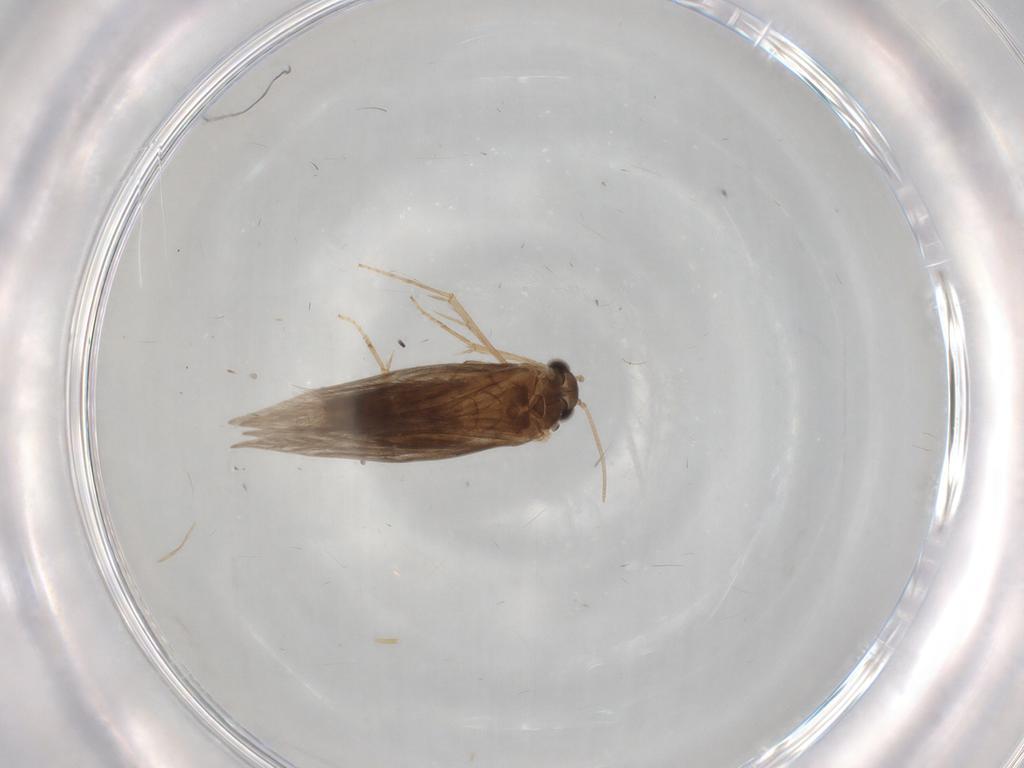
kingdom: Animalia
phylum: Arthropoda
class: Insecta
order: Trichoptera
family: Hydroptilidae
